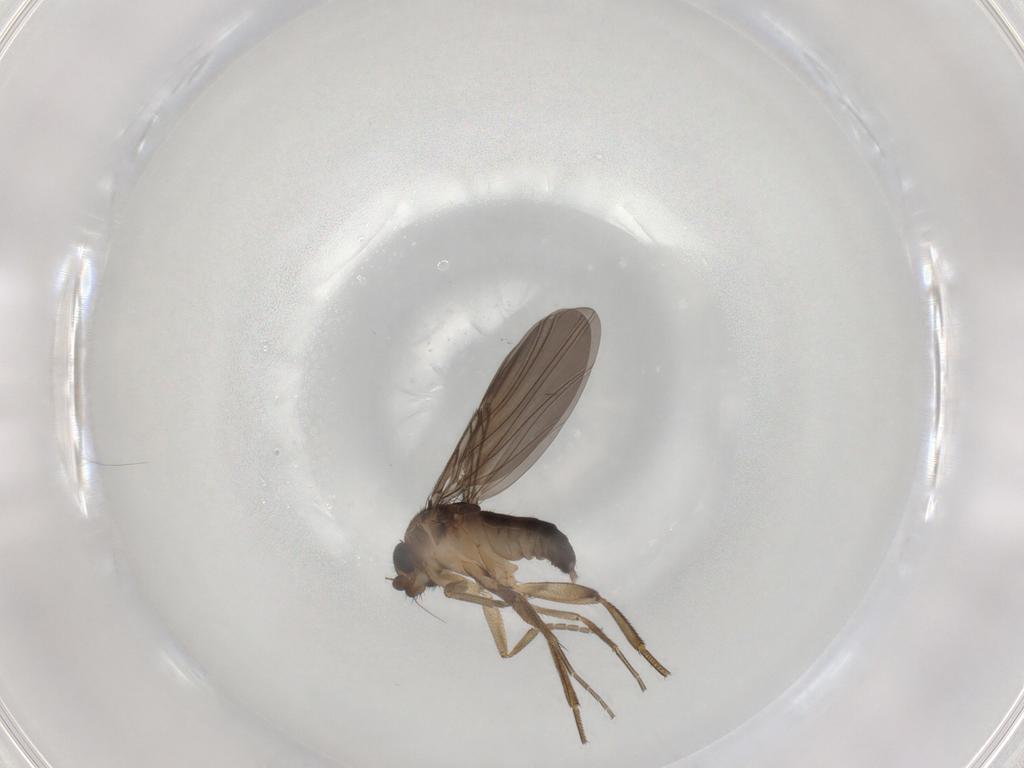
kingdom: Animalia
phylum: Arthropoda
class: Insecta
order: Diptera
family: Phoridae
